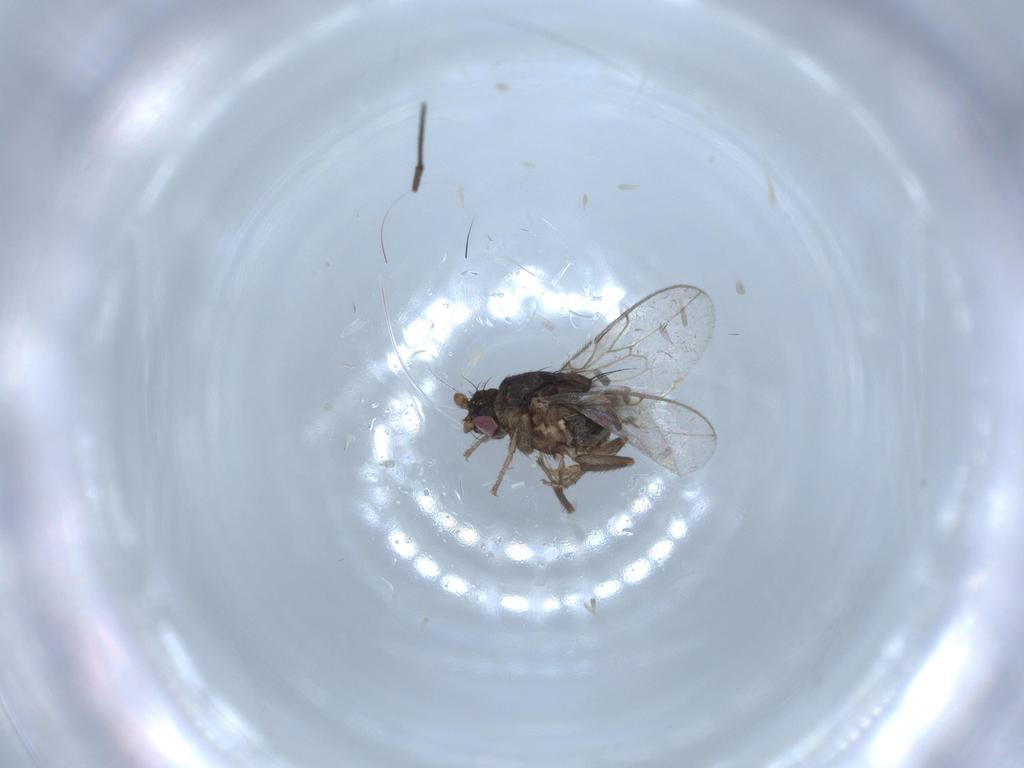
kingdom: Animalia
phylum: Arthropoda
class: Insecta
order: Diptera
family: Sphaeroceridae
